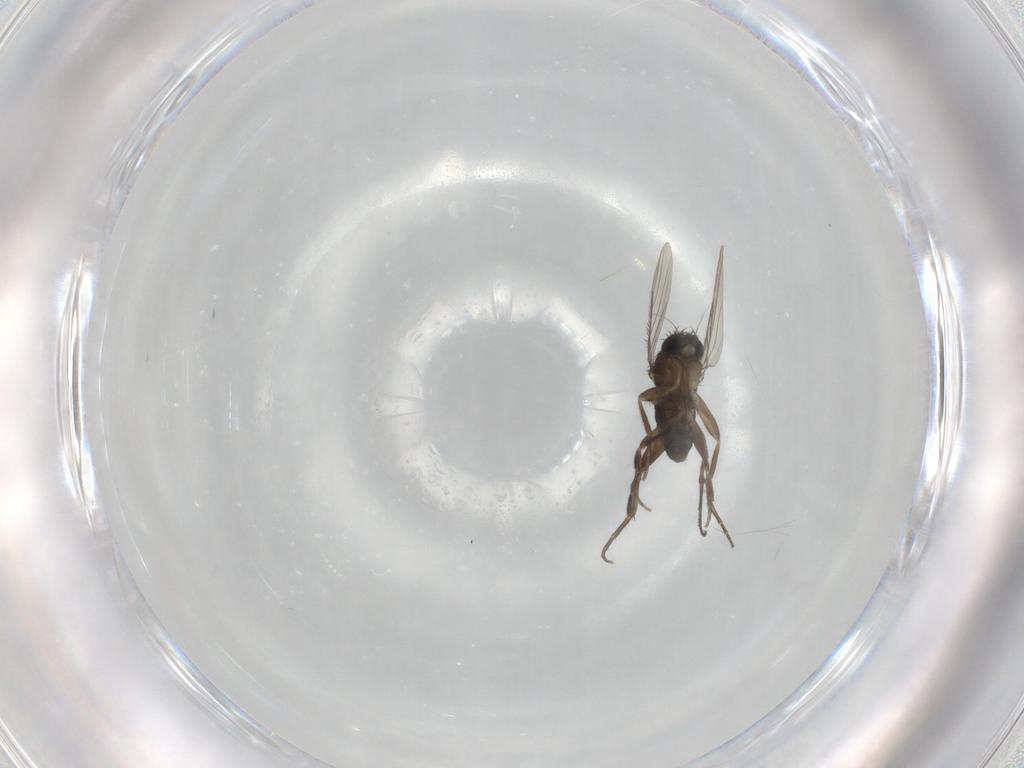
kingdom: Animalia
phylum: Arthropoda
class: Insecta
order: Diptera
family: Phoridae
